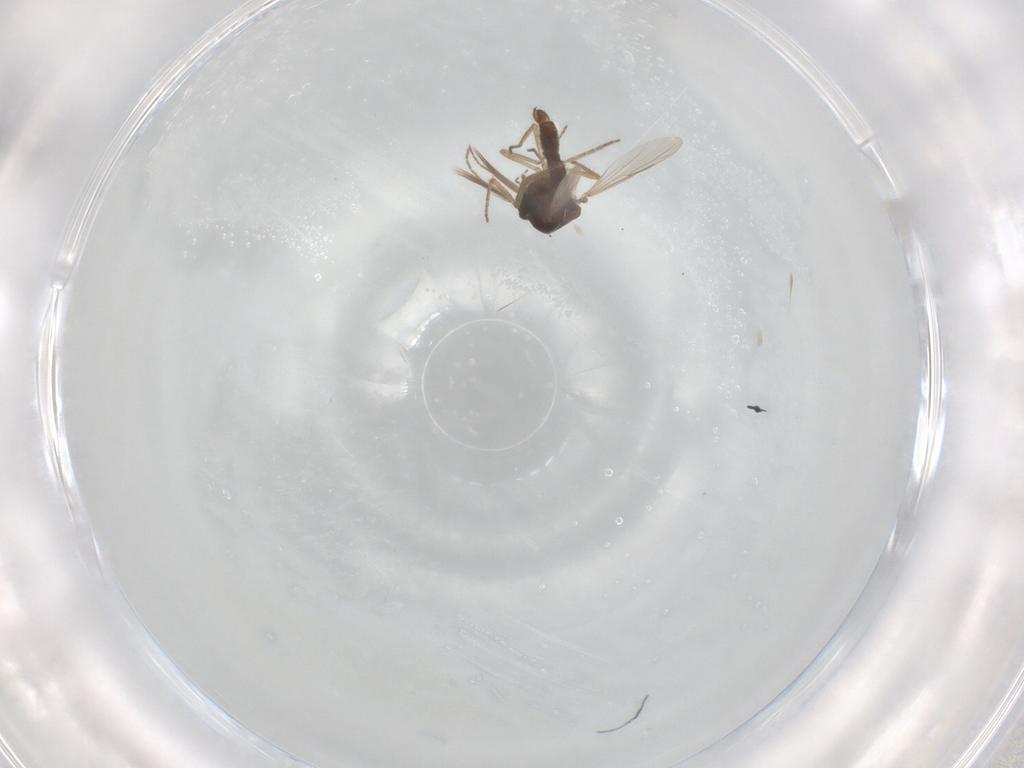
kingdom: Animalia
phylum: Arthropoda
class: Insecta
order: Diptera
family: Ceratopogonidae
